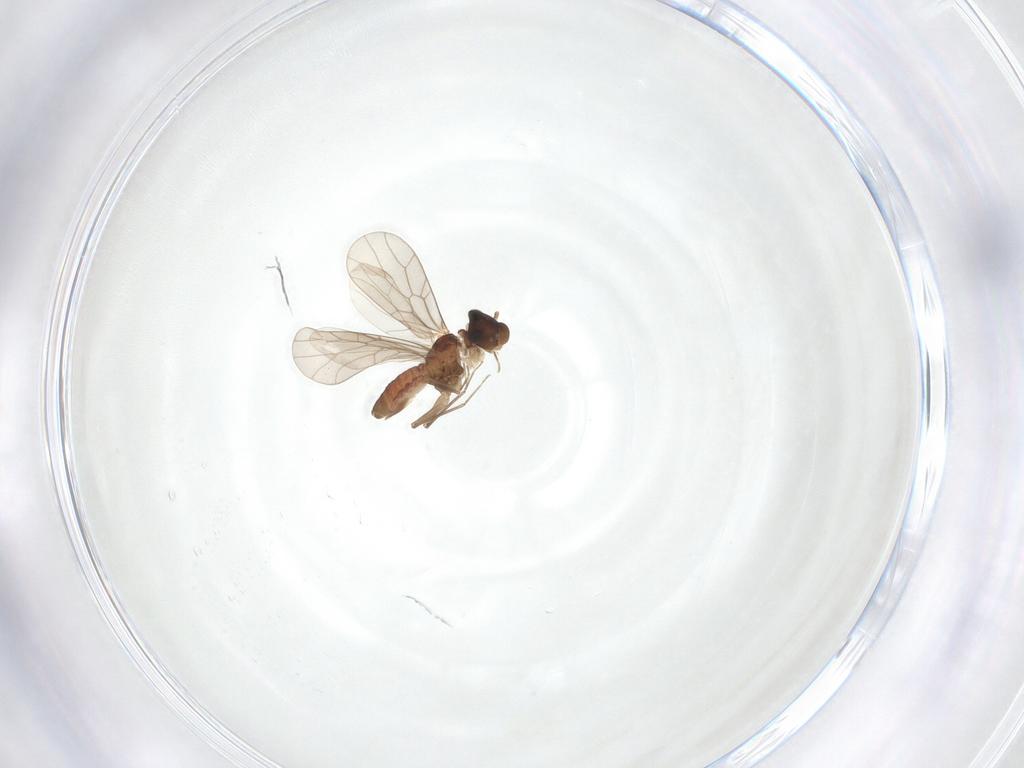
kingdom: Animalia
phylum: Arthropoda
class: Insecta
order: Psocodea
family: Lepidopsocidae
